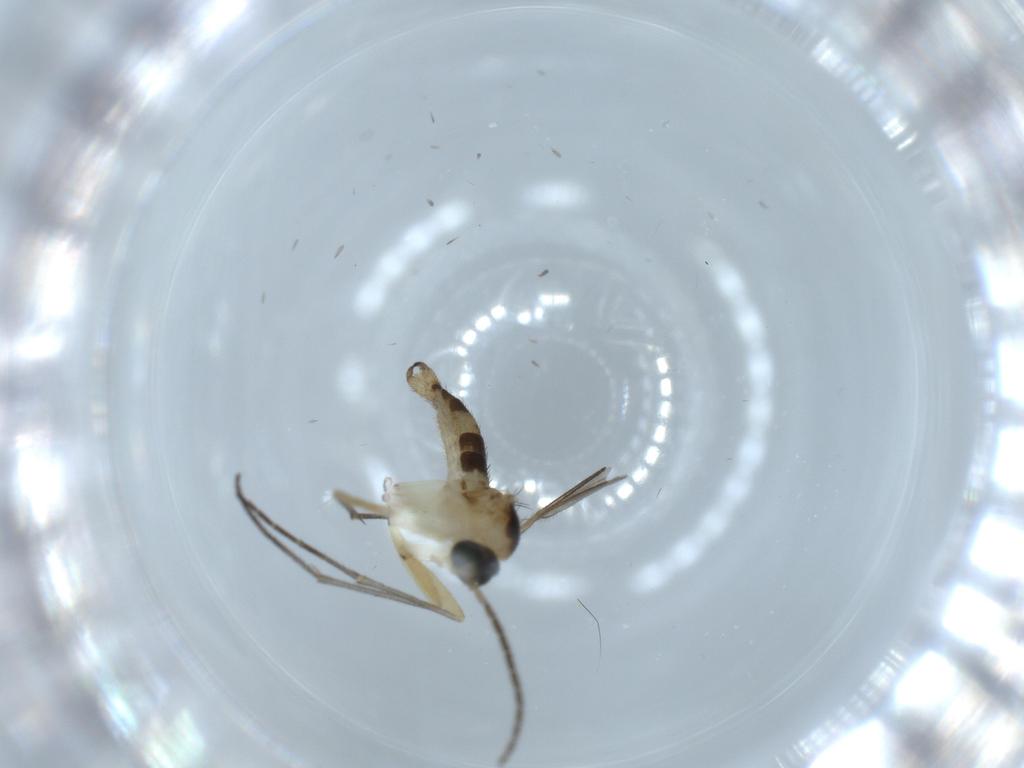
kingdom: Animalia
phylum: Arthropoda
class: Insecta
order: Diptera
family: Sciaridae
